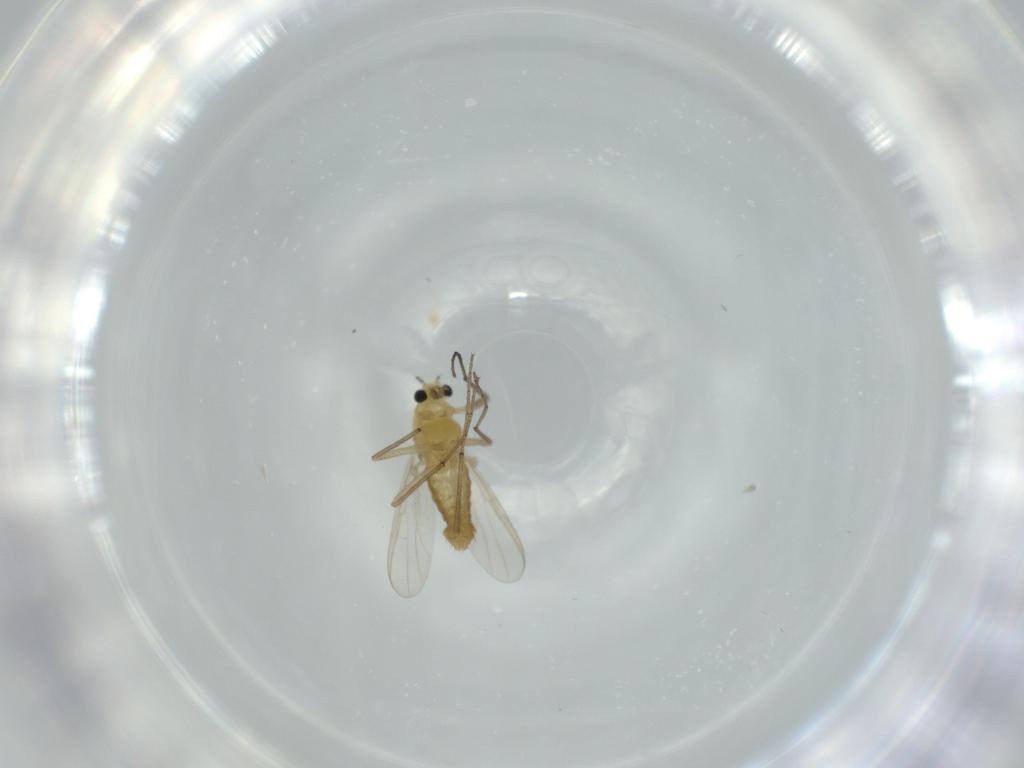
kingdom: Animalia
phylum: Arthropoda
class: Insecta
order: Diptera
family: Chironomidae
